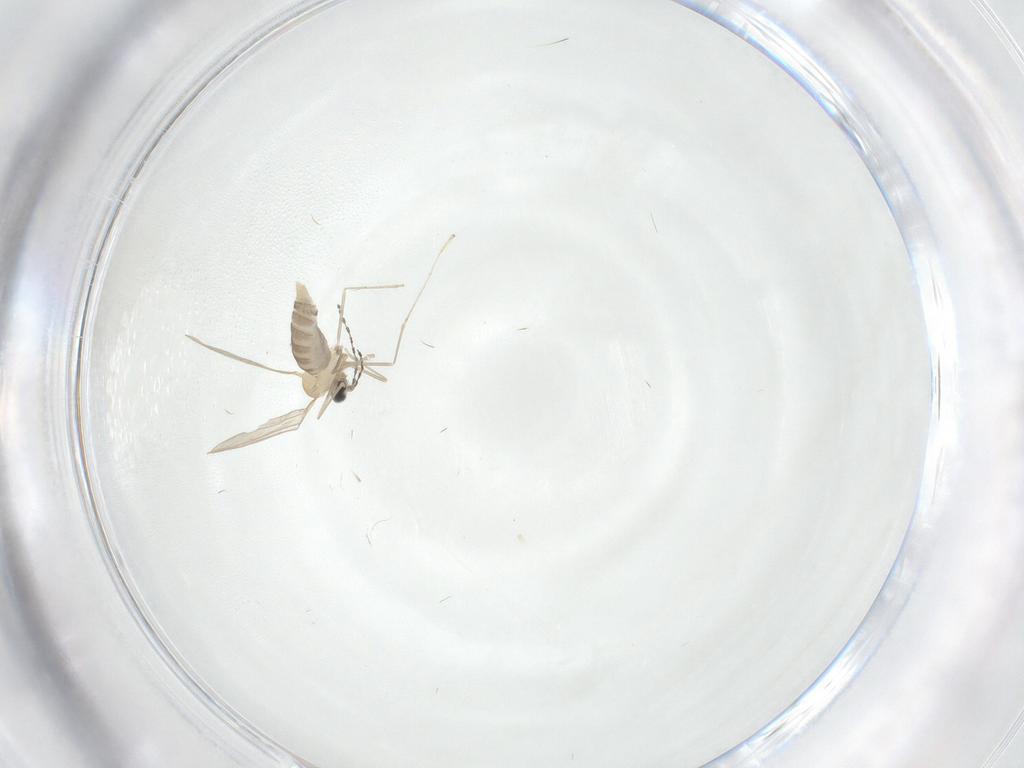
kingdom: Animalia
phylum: Arthropoda
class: Insecta
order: Diptera
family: Cecidomyiidae
